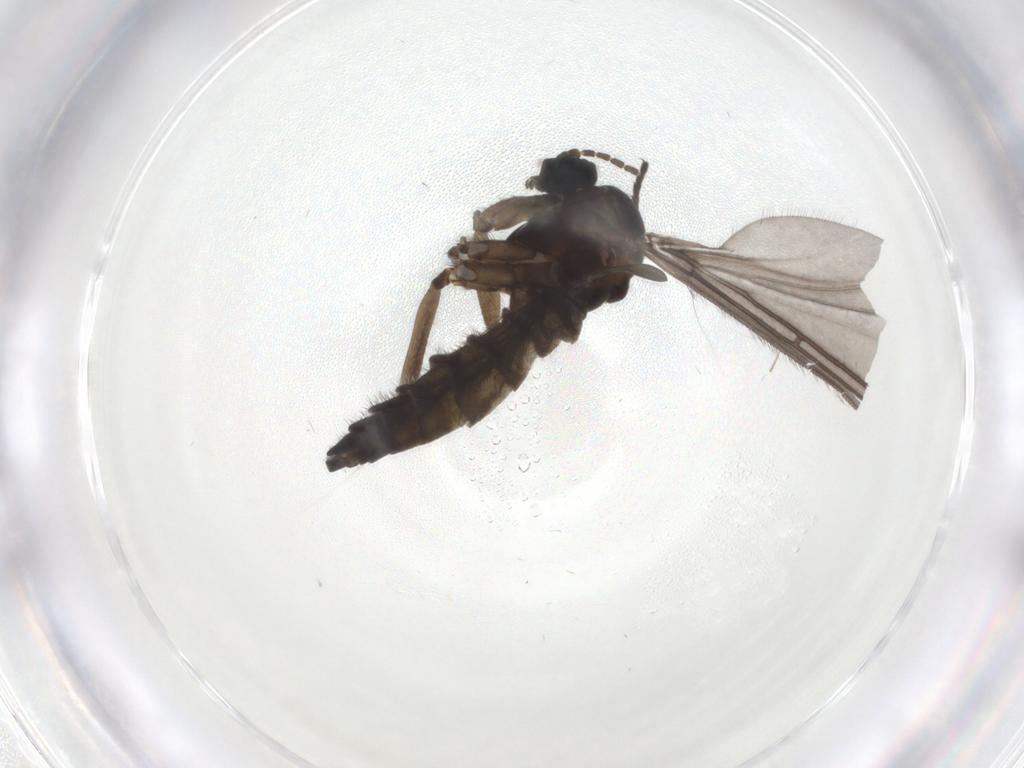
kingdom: Animalia
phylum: Arthropoda
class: Insecta
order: Diptera
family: Sciaridae
